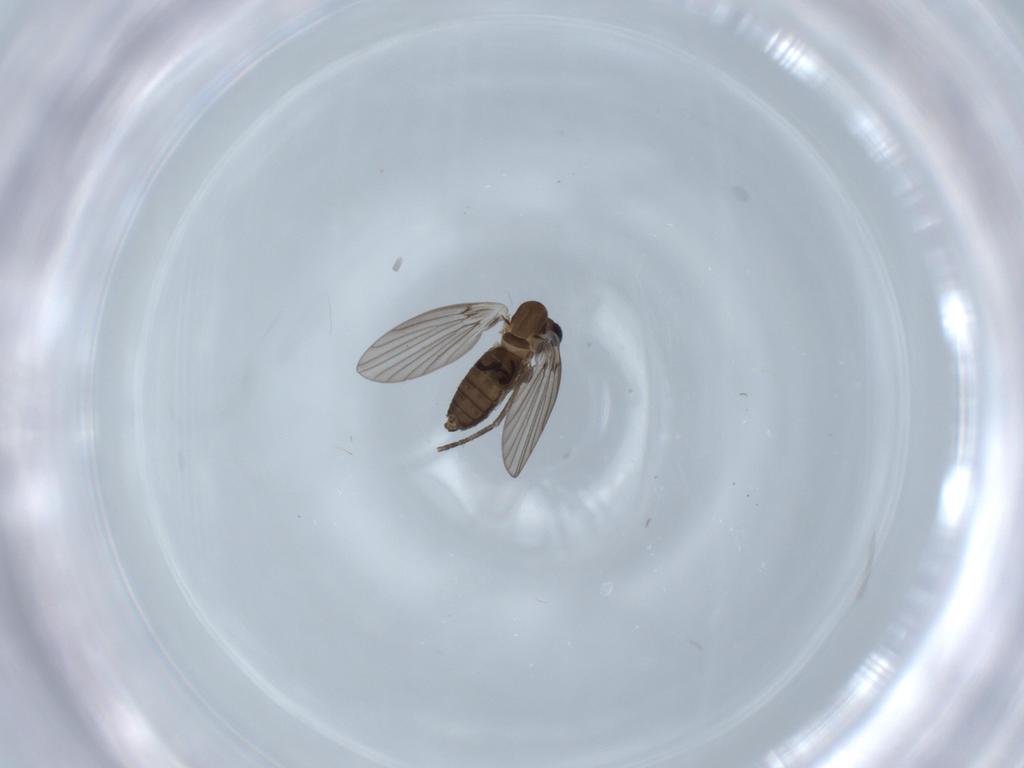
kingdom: Animalia
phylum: Arthropoda
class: Insecta
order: Diptera
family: Psychodidae
